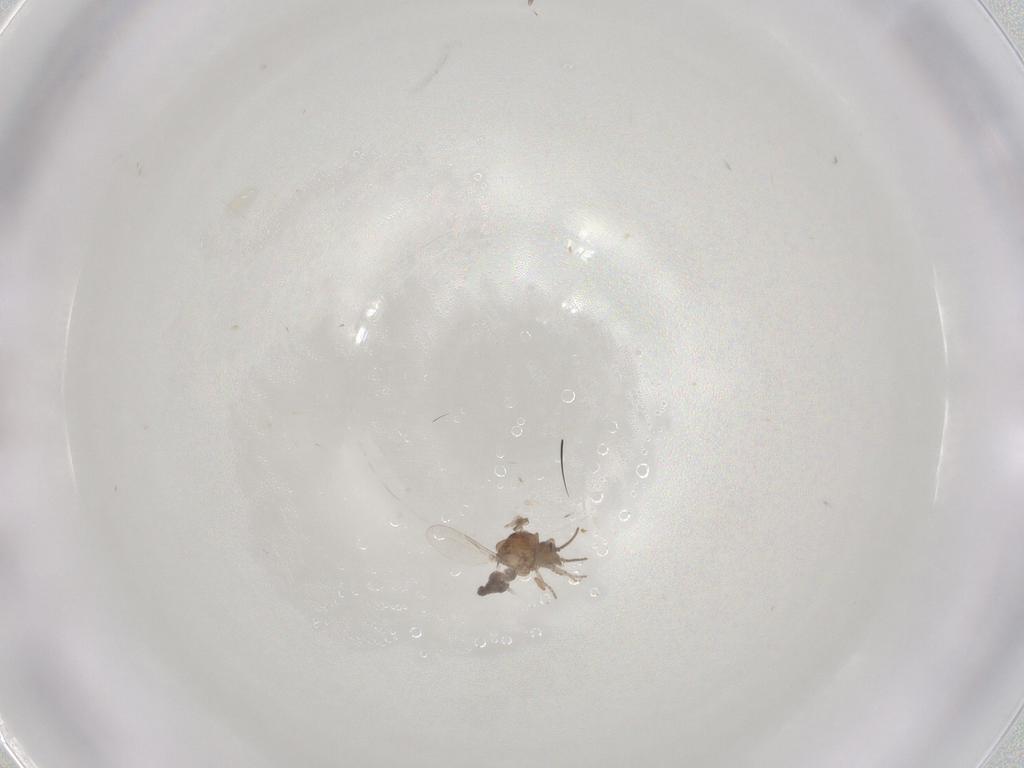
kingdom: Animalia
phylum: Arthropoda
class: Insecta
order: Diptera
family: Ceratopogonidae
